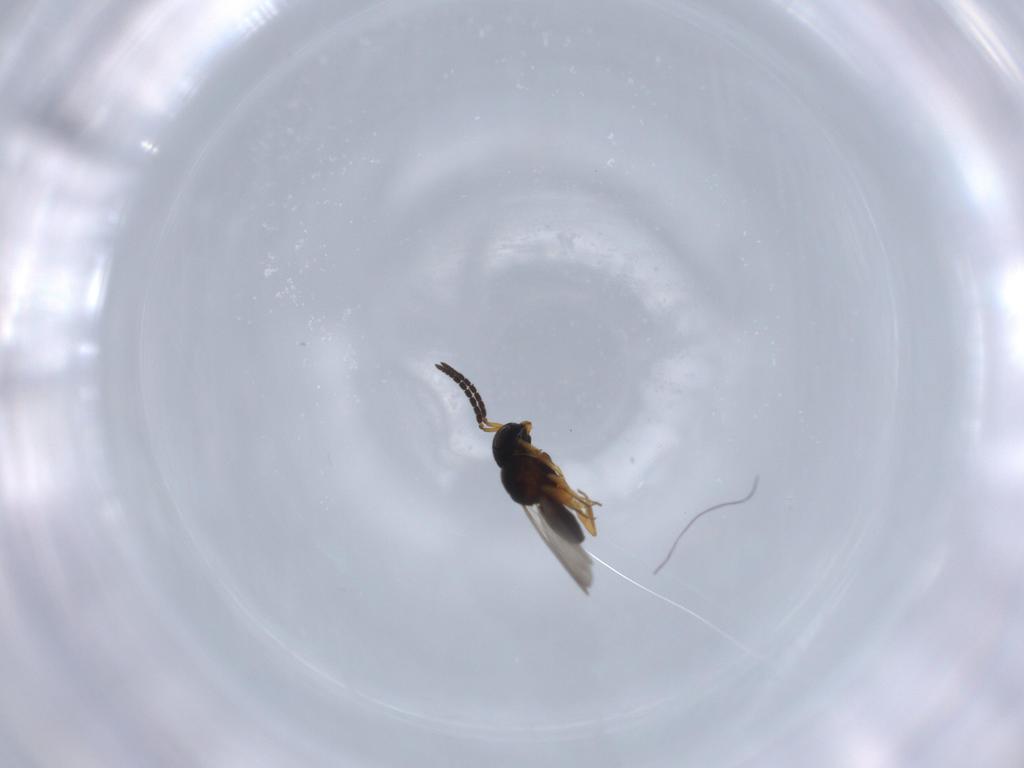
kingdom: Animalia
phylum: Arthropoda
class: Insecta
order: Coleoptera
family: Curculionidae
